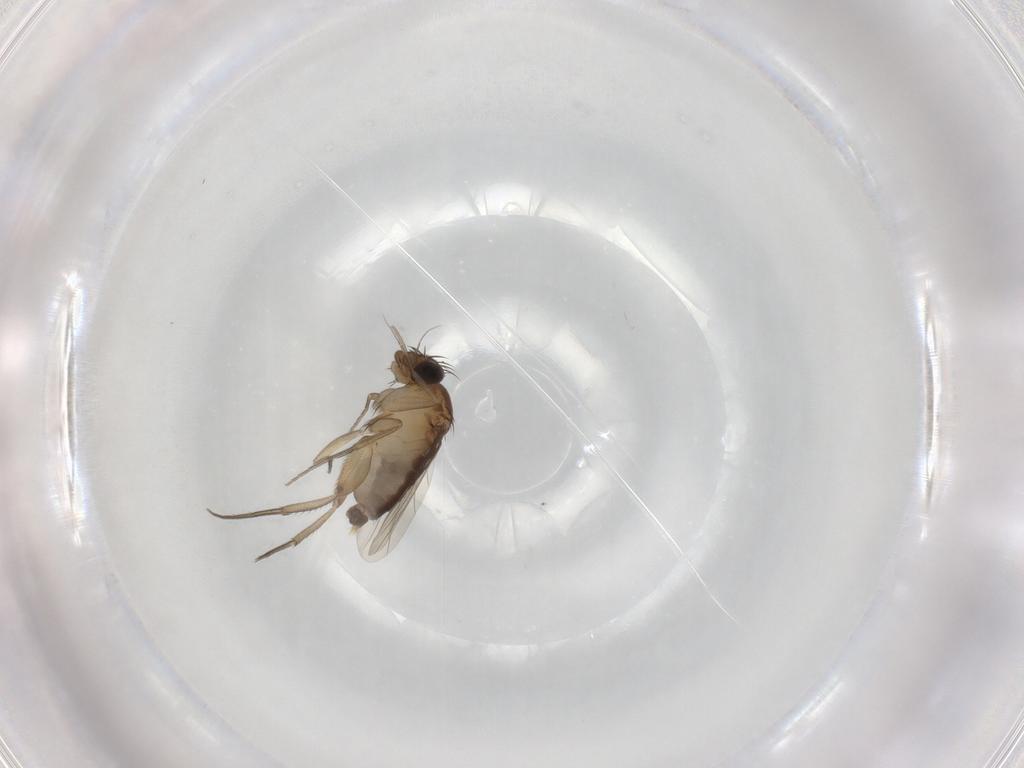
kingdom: Animalia
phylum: Arthropoda
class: Insecta
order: Diptera
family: Phoridae
